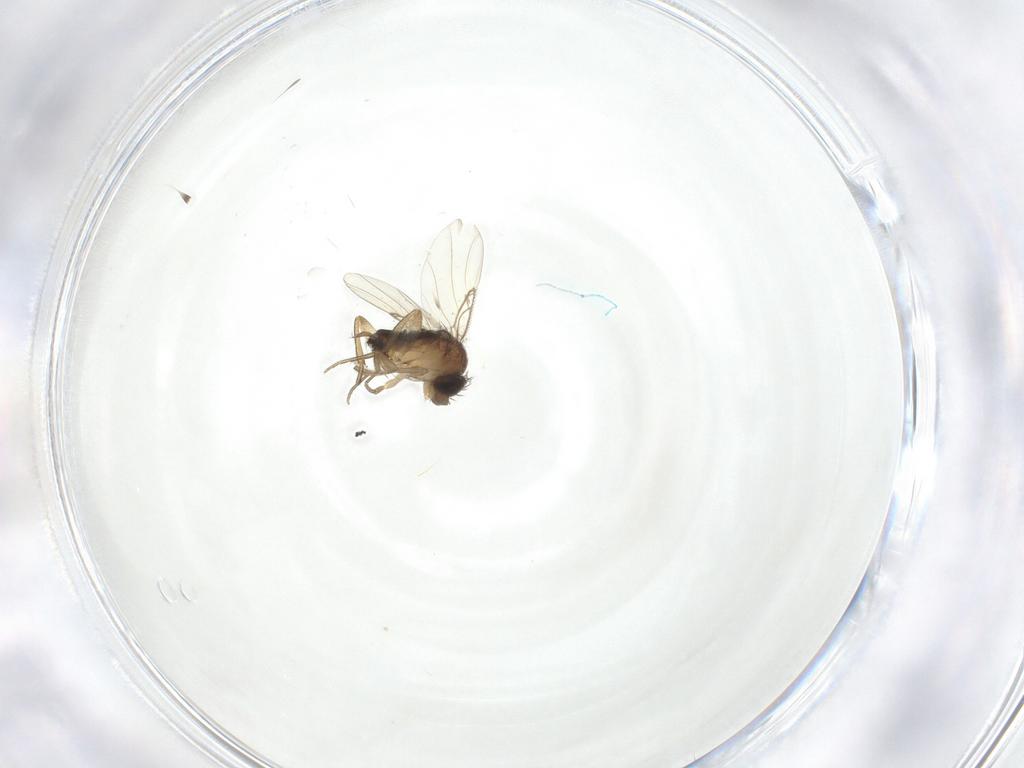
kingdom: Animalia
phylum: Arthropoda
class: Insecta
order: Diptera
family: Phoridae
